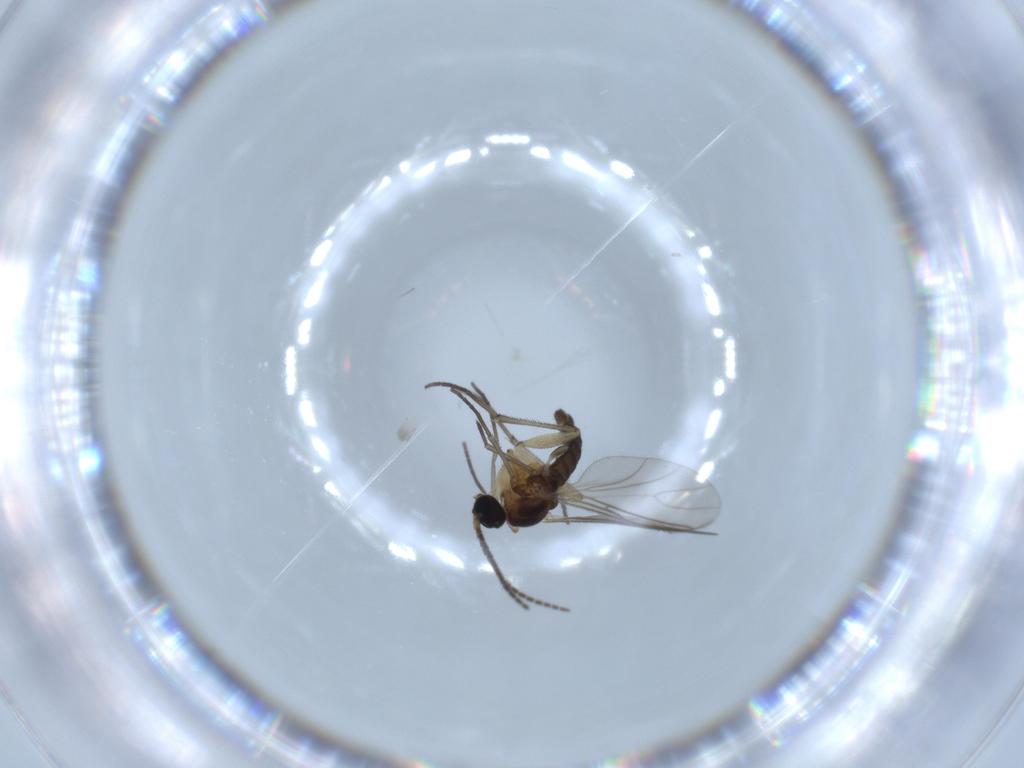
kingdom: Animalia
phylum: Arthropoda
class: Insecta
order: Diptera
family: Sciaridae
